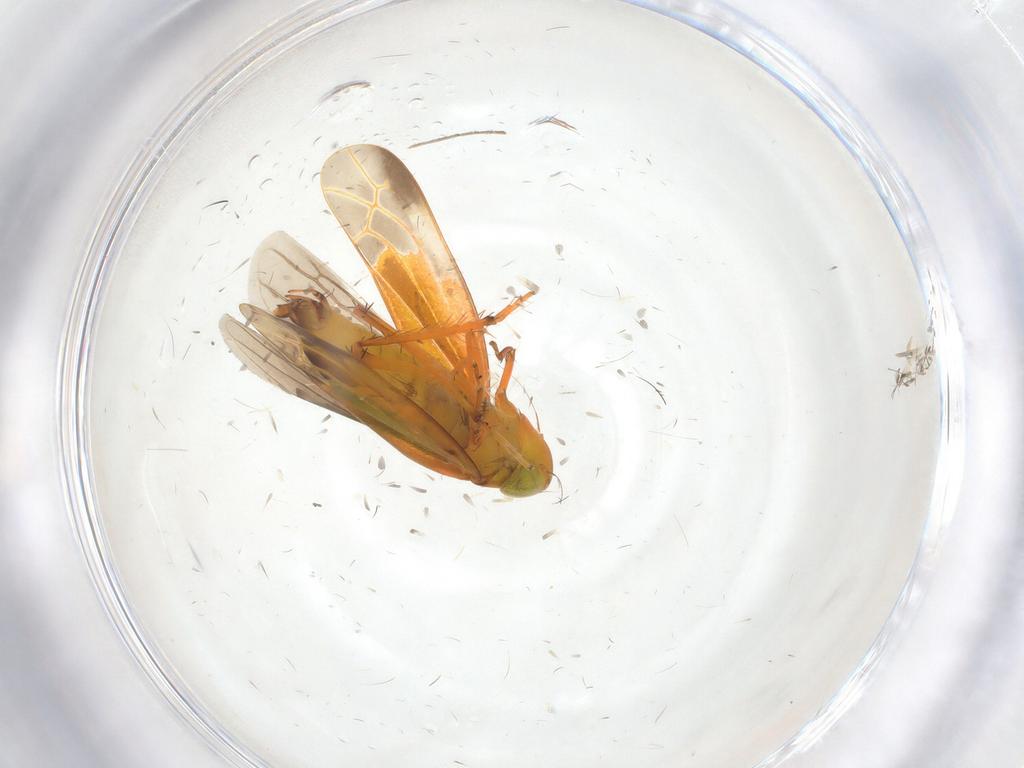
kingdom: Animalia
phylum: Arthropoda
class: Insecta
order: Hemiptera
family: Cicadellidae
